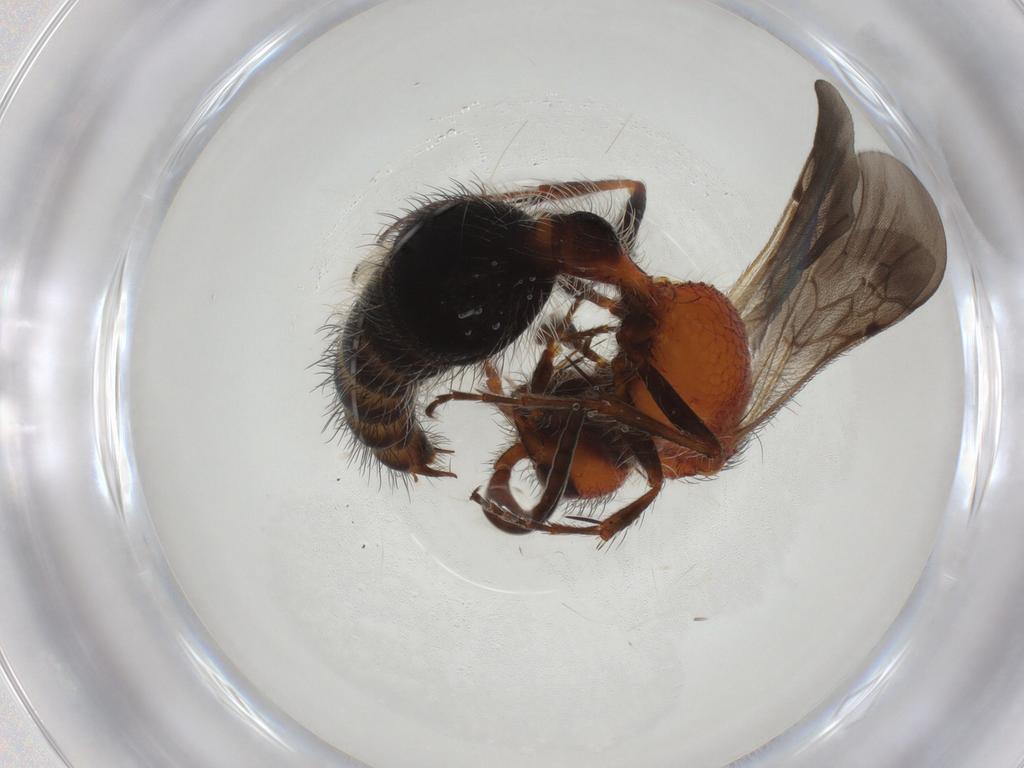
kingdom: Animalia
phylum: Arthropoda
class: Insecta
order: Hymenoptera
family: Mutillidae
